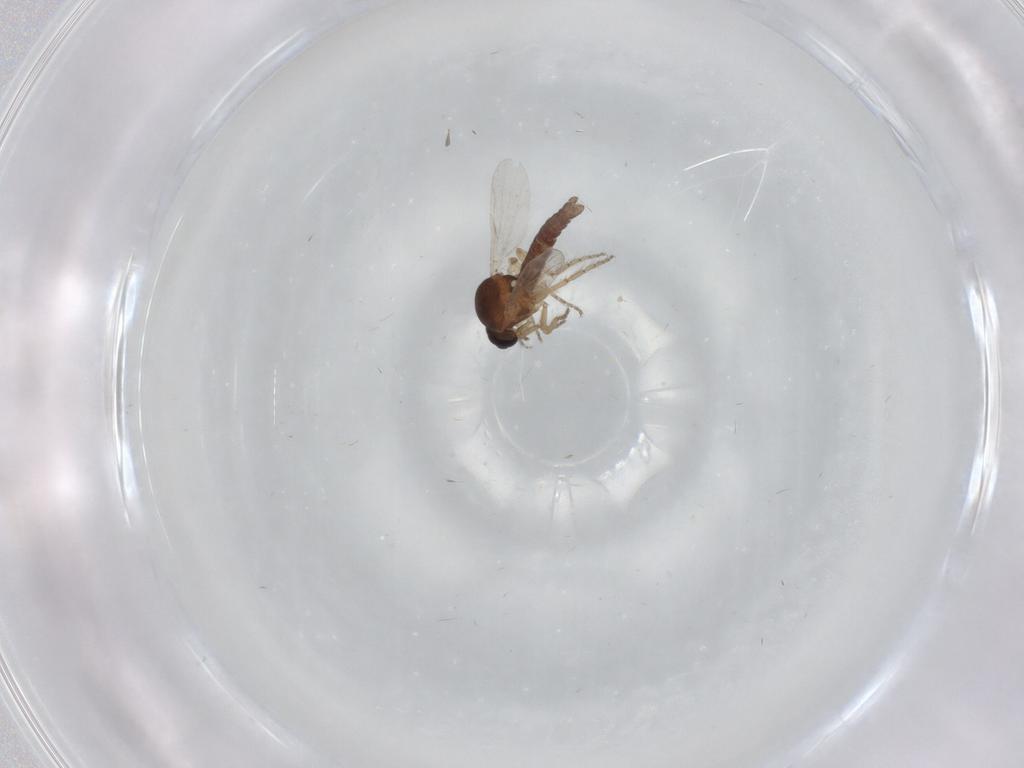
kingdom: Animalia
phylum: Arthropoda
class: Insecta
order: Diptera
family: Ceratopogonidae
